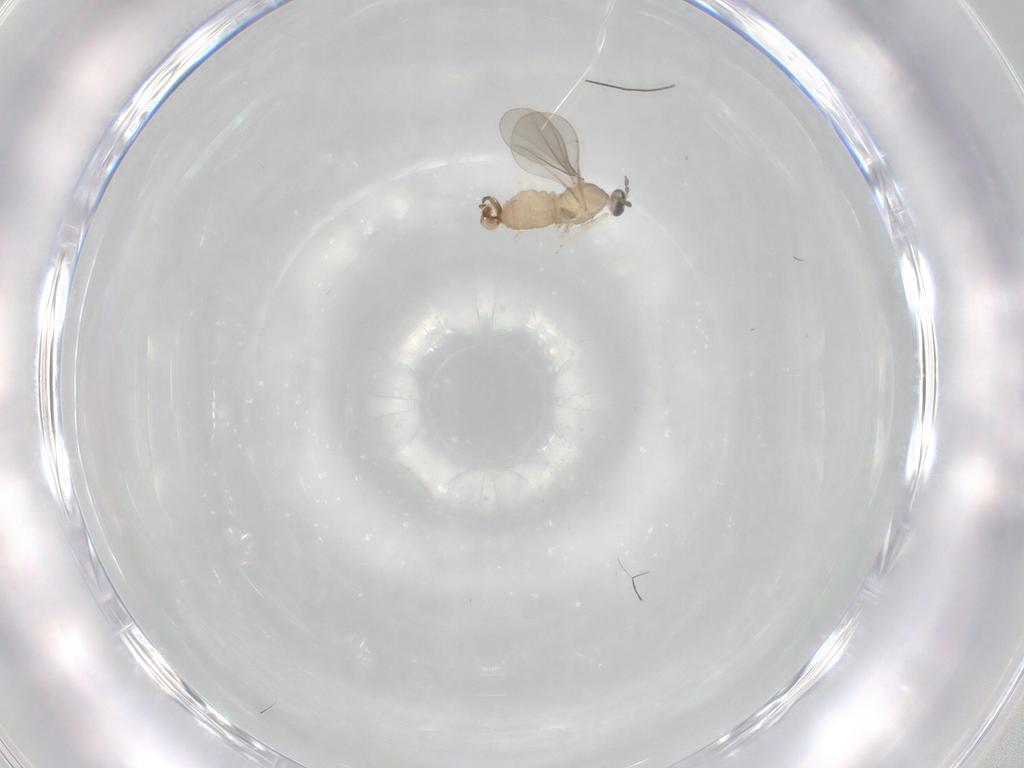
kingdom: Animalia
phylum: Arthropoda
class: Insecta
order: Diptera
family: Cecidomyiidae
